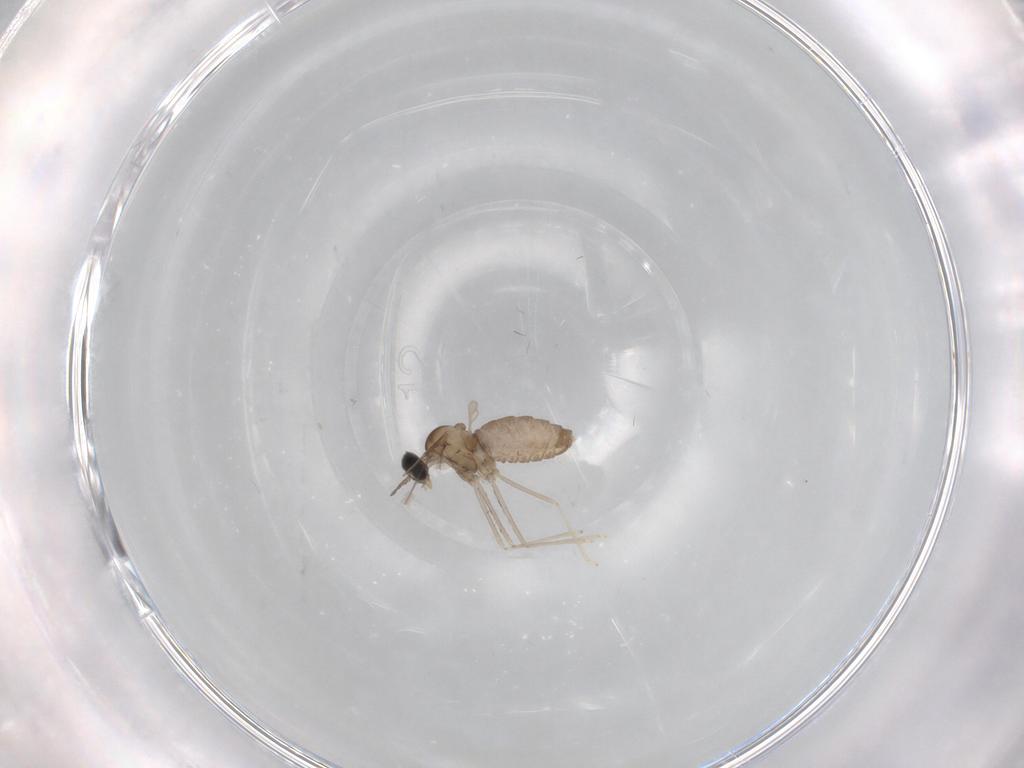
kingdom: Animalia
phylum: Arthropoda
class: Insecta
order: Diptera
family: Cecidomyiidae
